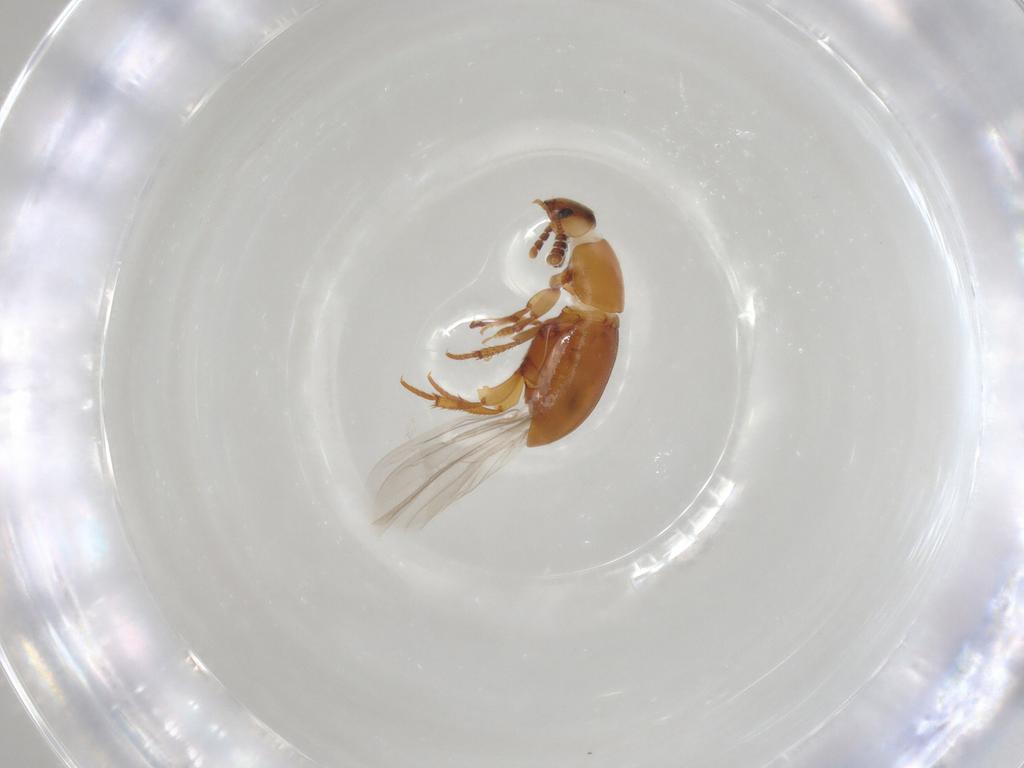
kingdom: Animalia
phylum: Arthropoda
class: Insecta
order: Coleoptera
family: Leiodidae
